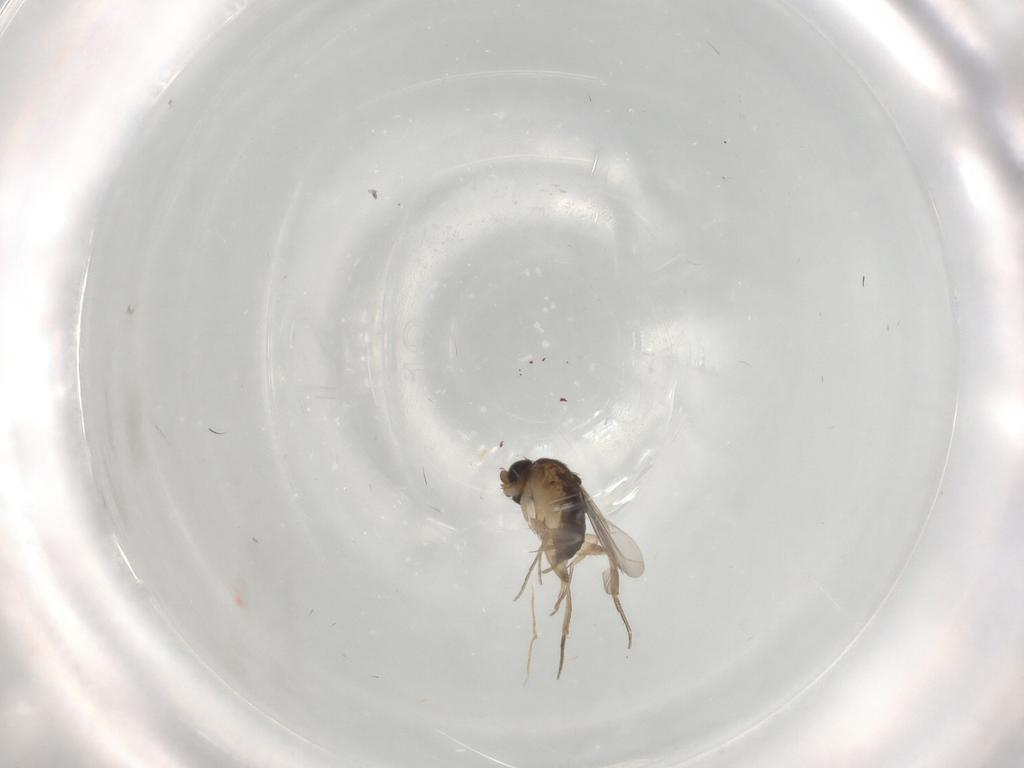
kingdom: Animalia
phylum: Arthropoda
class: Insecta
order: Diptera
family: Phoridae
